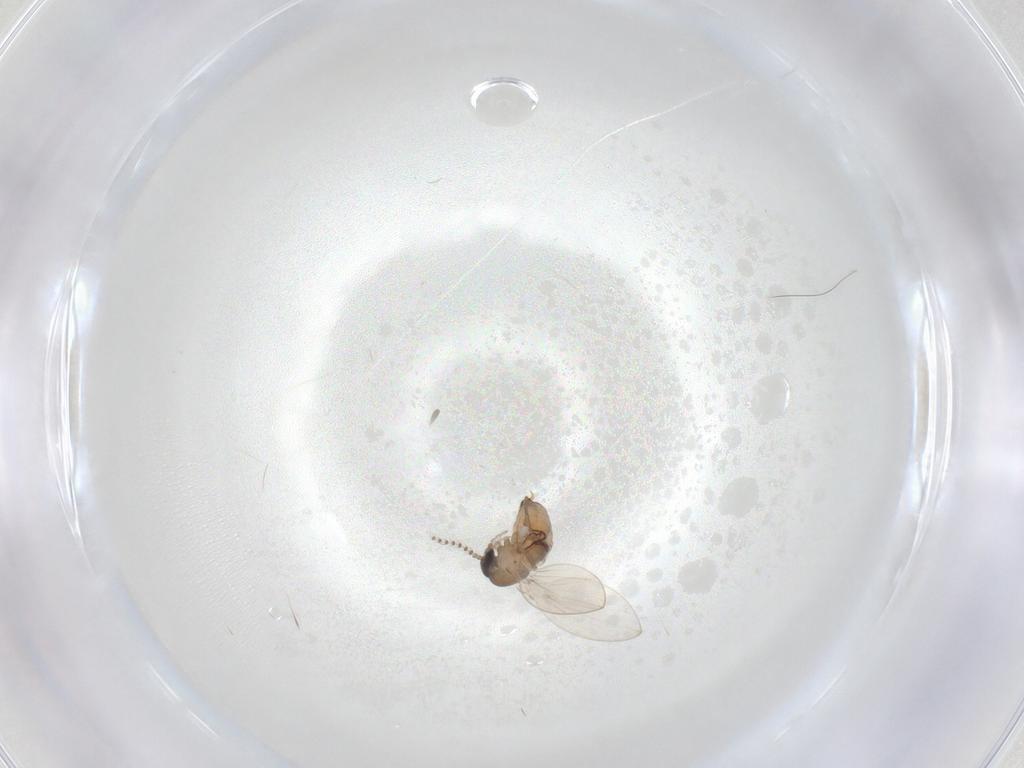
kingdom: Animalia
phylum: Arthropoda
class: Insecta
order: Diptera
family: Psychodidae
